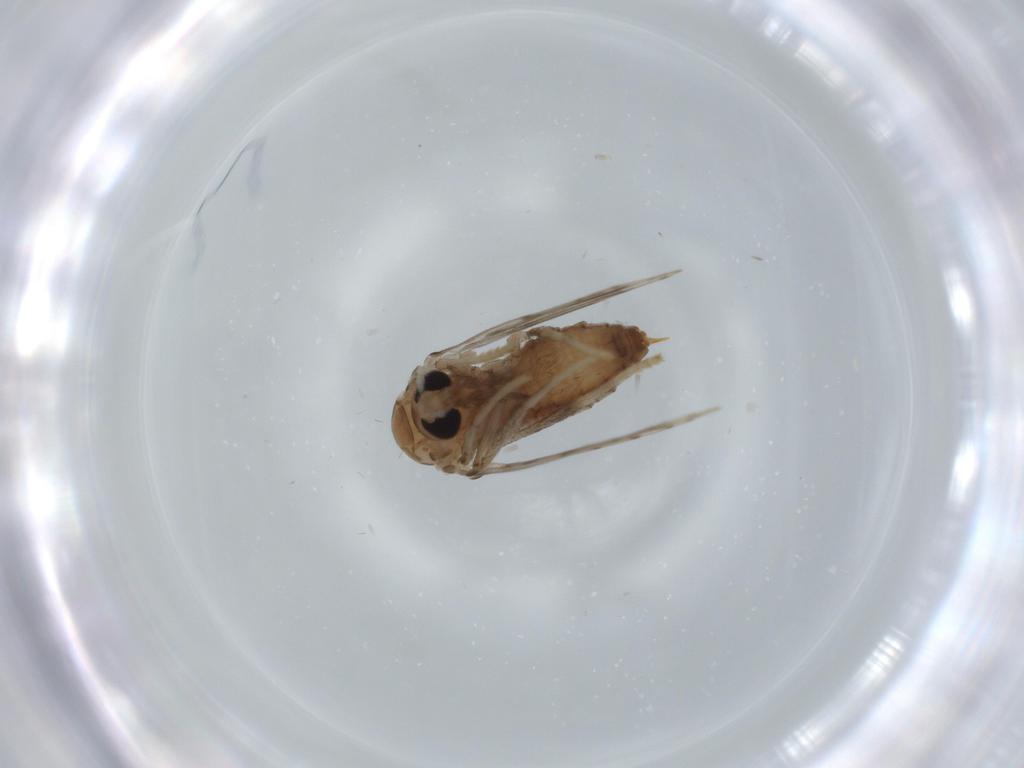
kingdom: Animalia
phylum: Arthropoda
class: Insecta
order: Diptera
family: Psychodidae
